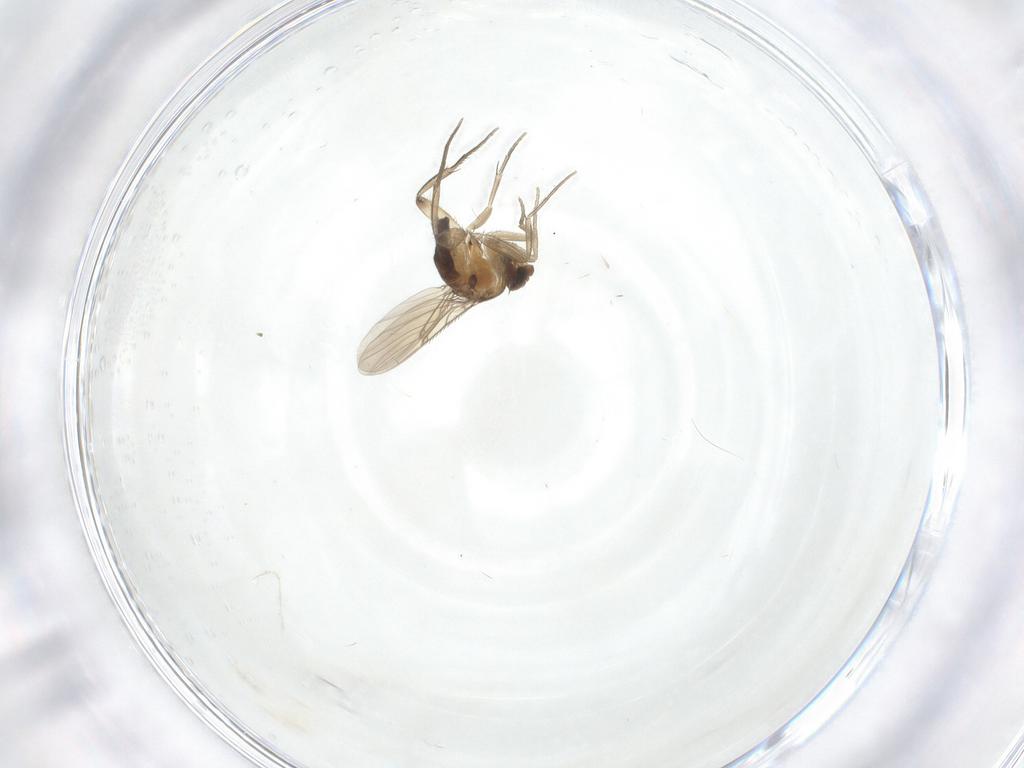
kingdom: Animalia
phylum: Arthropoda
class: Insecta
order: Diptera
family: Phoridae
